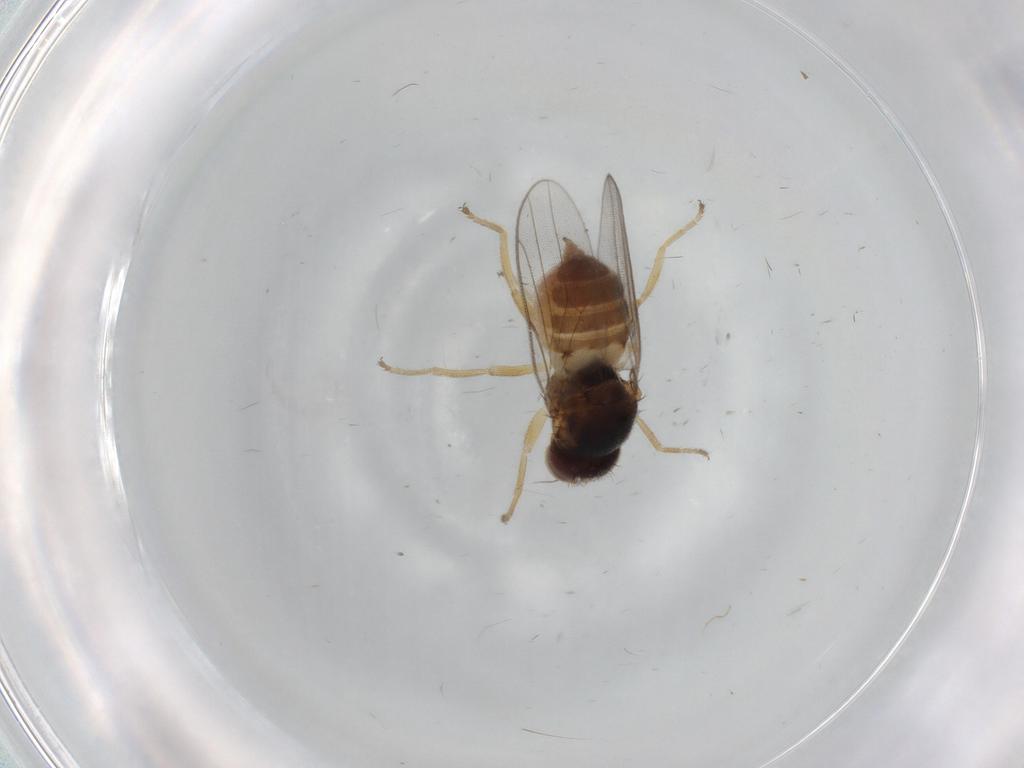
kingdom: Animalia
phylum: Arthropoda
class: Insecta
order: Diptera
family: Chloropidae
